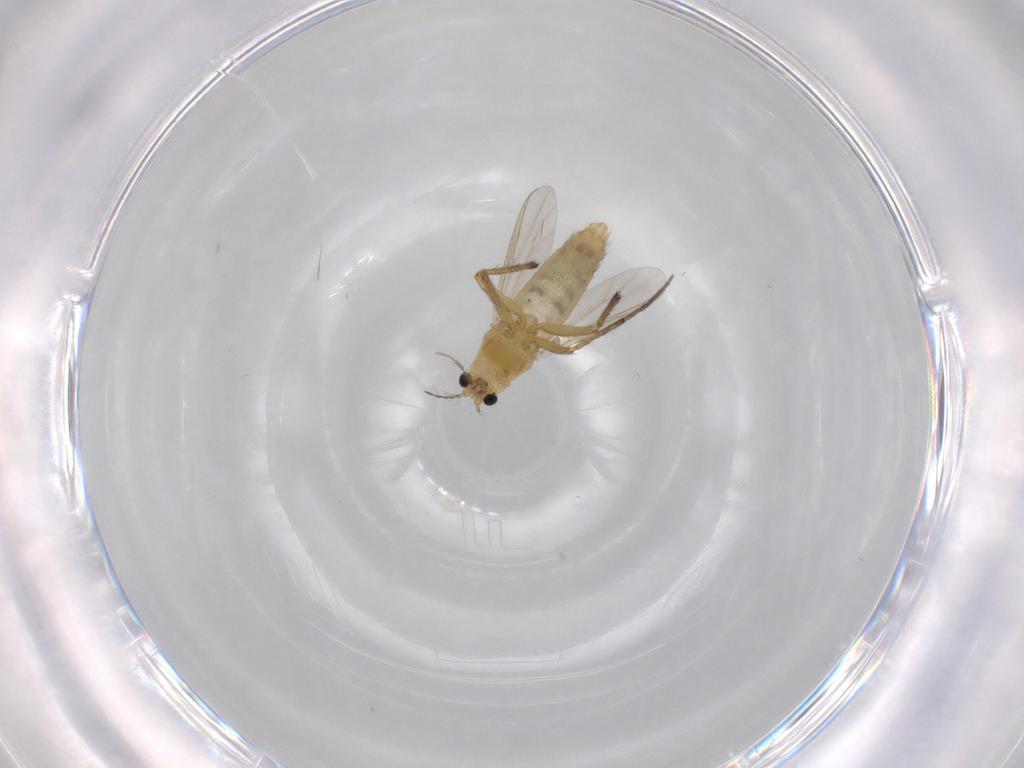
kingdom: Animalia
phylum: Arthropoda
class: Insecta
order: Diptera
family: Chironomidae
